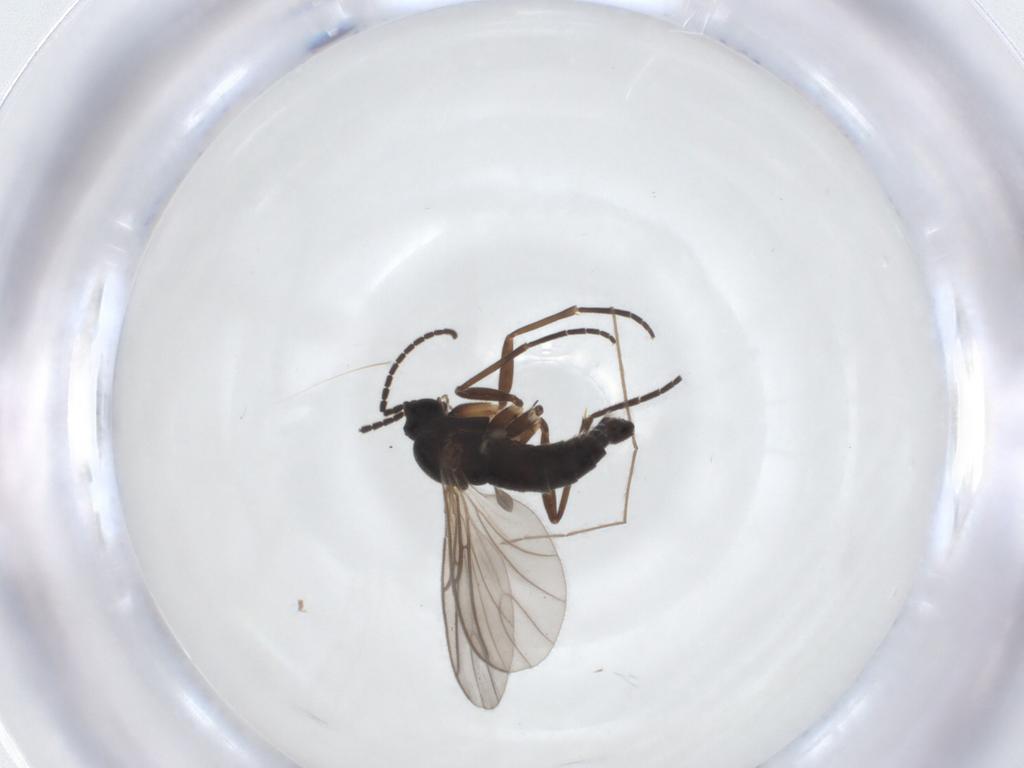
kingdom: Animalia
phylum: Arthropoda
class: Insecta
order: Diptera
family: Sciaridae
